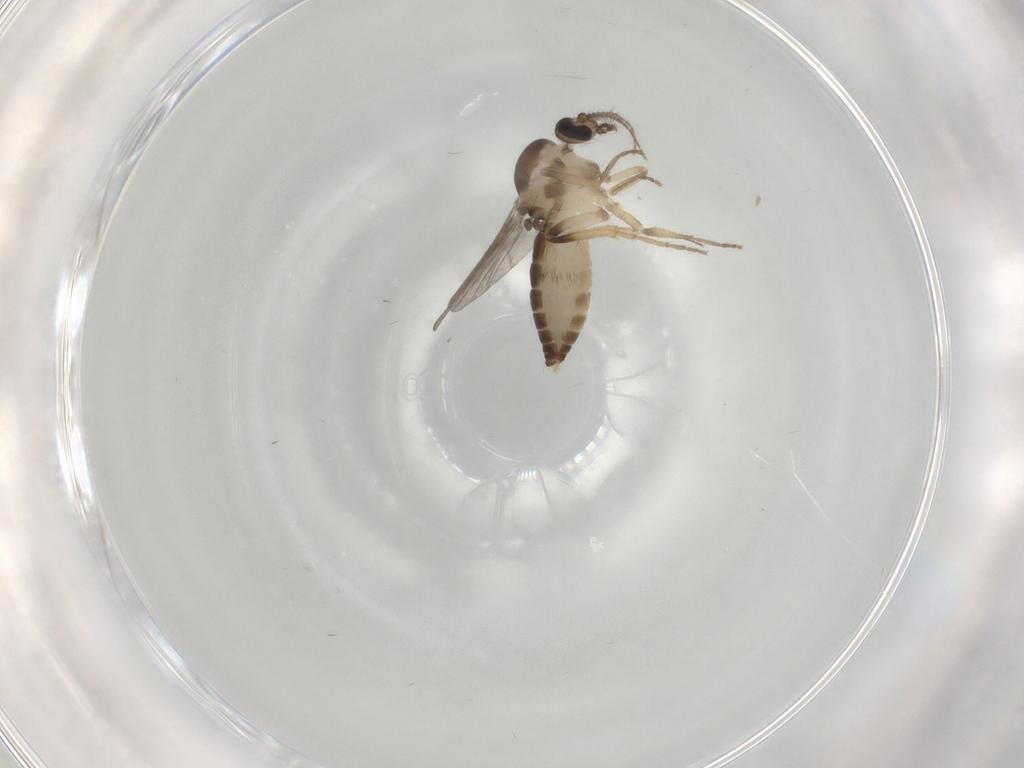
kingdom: Animalia
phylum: Arthropoda
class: Insecta
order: Diptera
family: Ceratopogonidae
